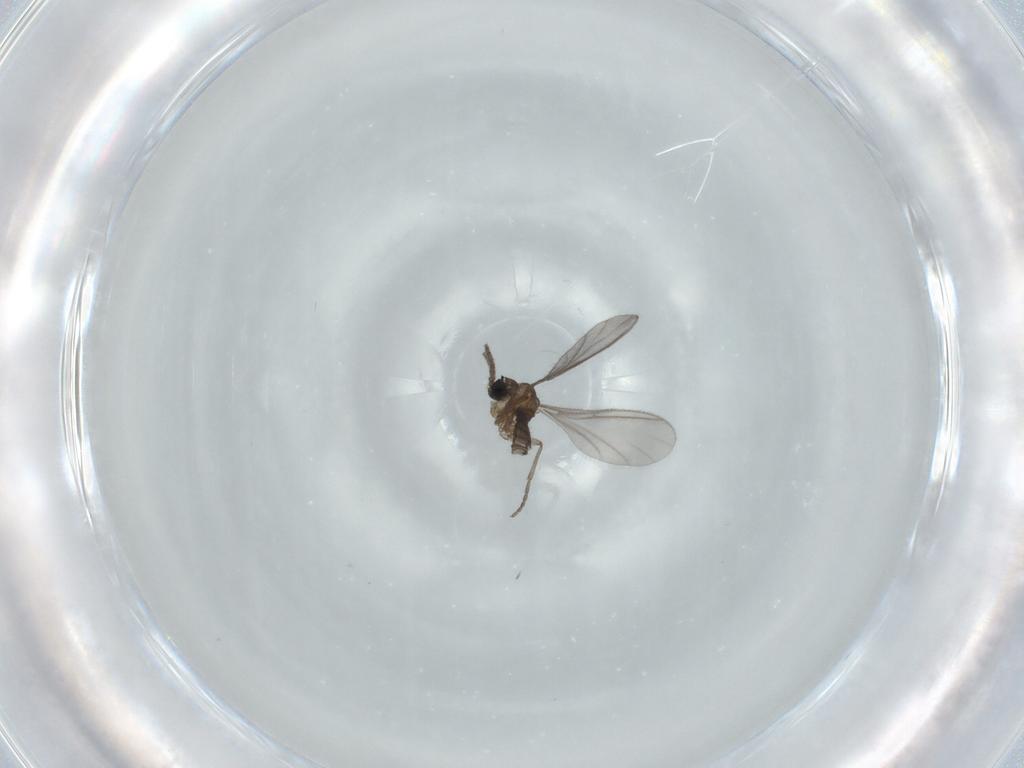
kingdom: Animalia
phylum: Arthropoda
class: Insecta
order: Diptera
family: Sciaridae
